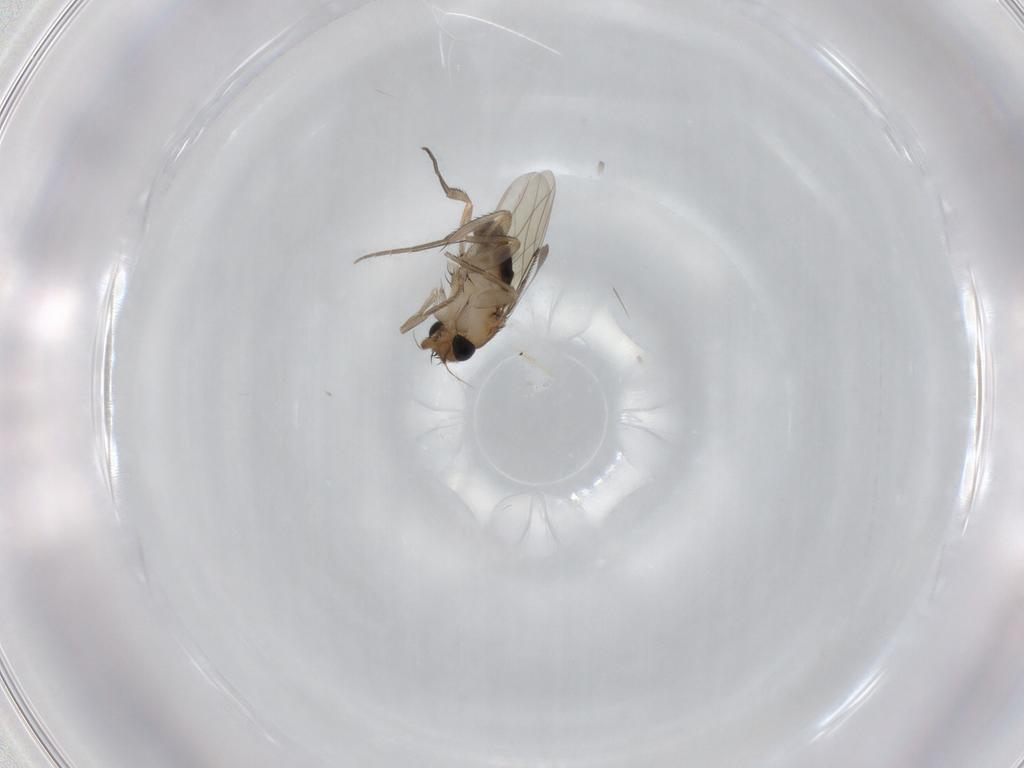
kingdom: Animalia
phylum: Arthropoda
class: Insecta
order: Diptera
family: Phoridae
